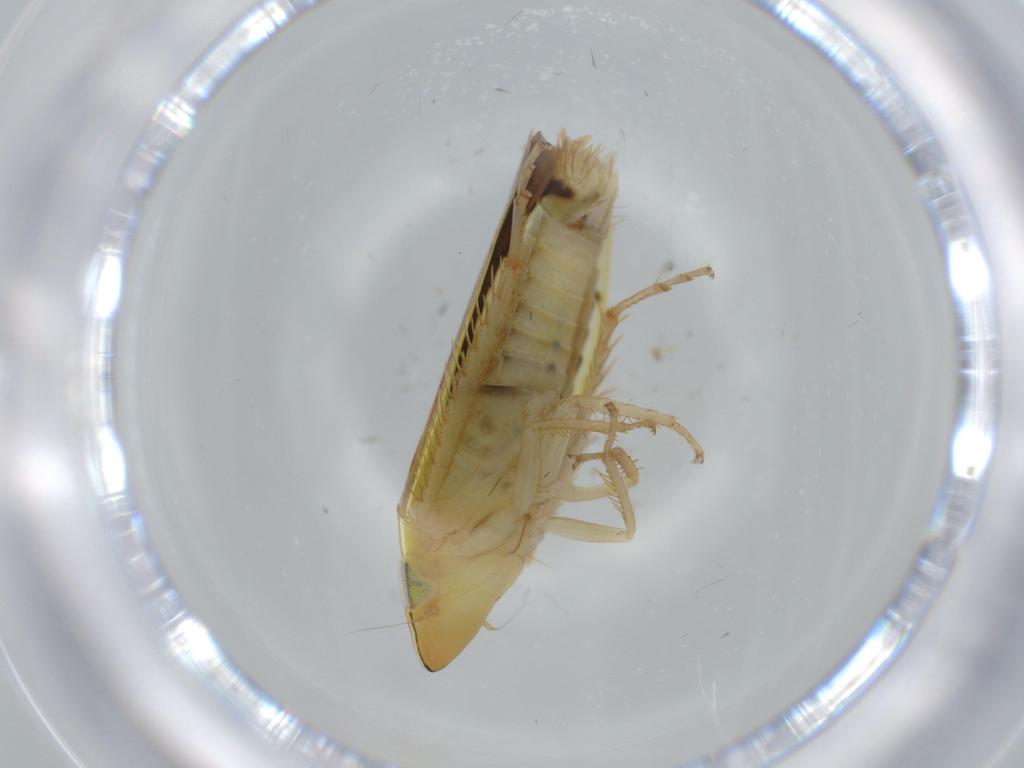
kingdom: Animalia
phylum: Arthropoda
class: Insecta
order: Hemiptera
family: Cicadellidae
